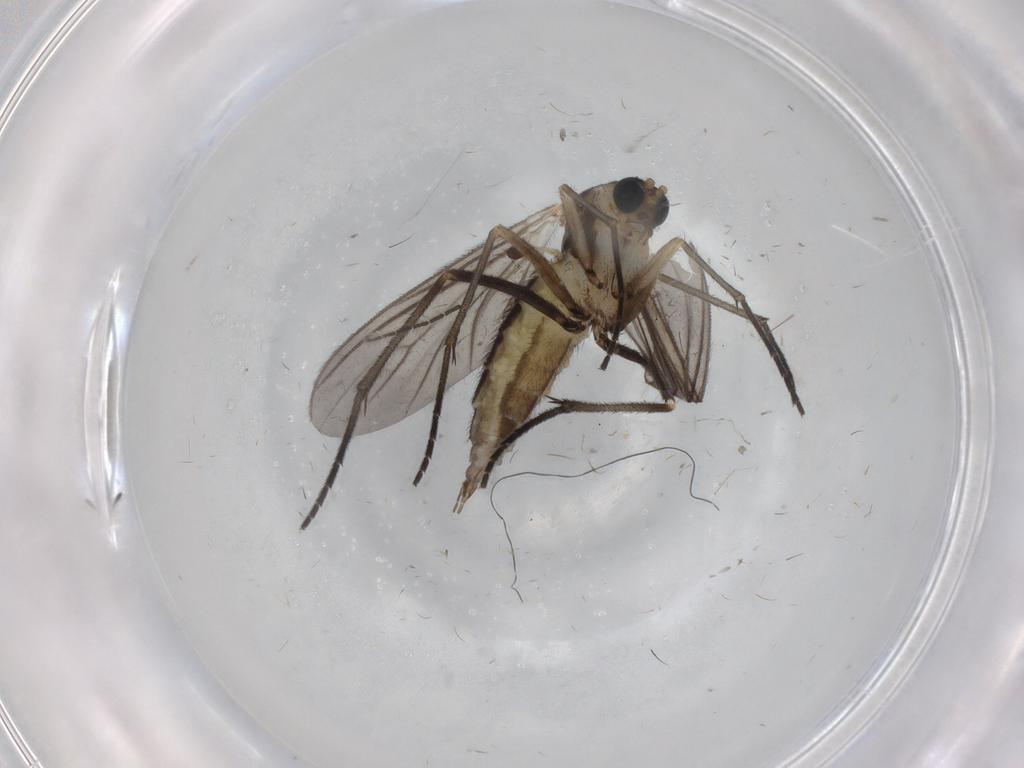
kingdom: Animalia
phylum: Arthropoda
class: Insecta
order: Diptera
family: Sciaridae
